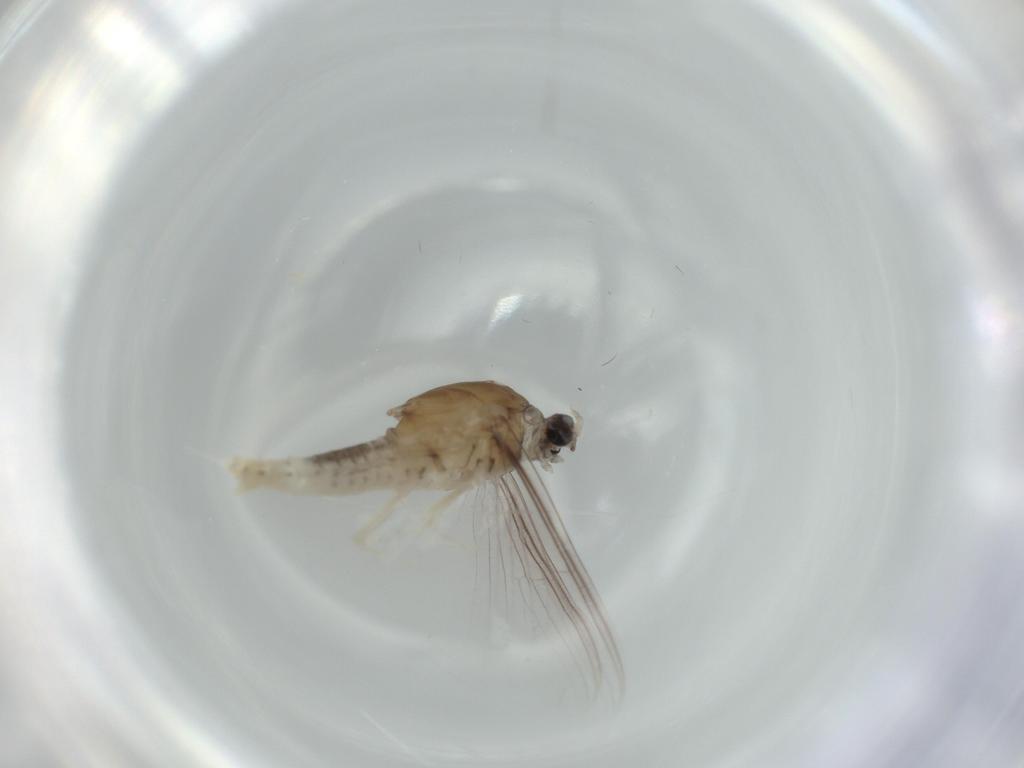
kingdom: Animalia
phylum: Arthropoda
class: Insecta
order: Ephemeroptera
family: Caenidae
